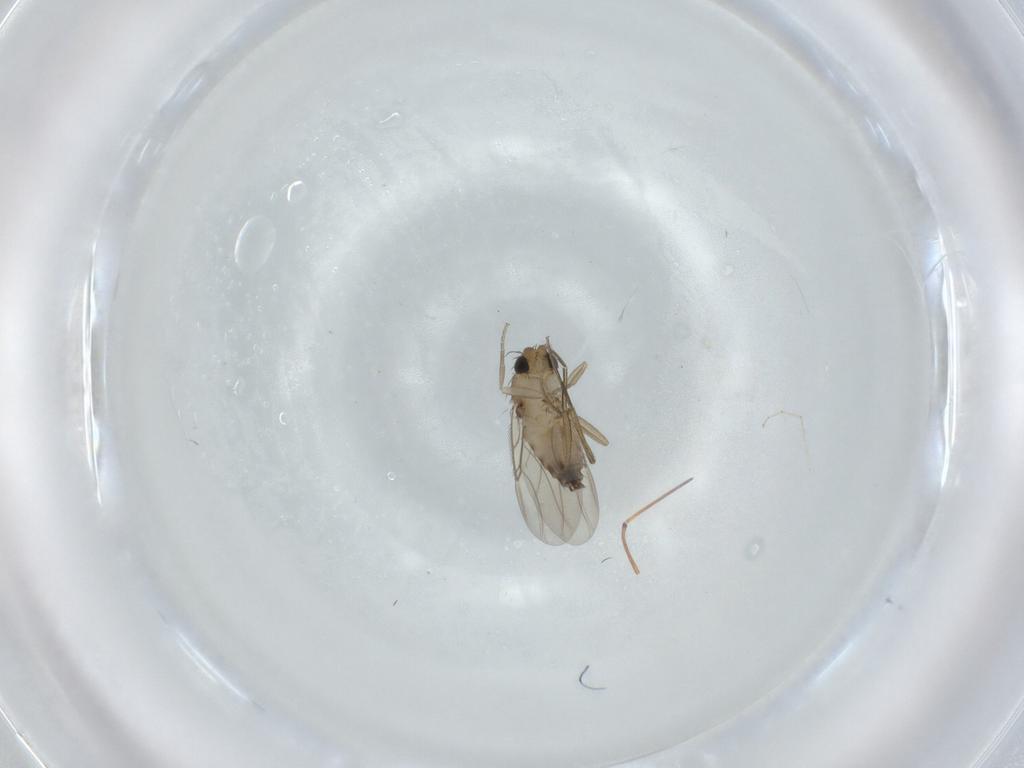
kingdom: Animalia
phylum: Arthropoda
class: Insecta
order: Diptera
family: Phoridae
